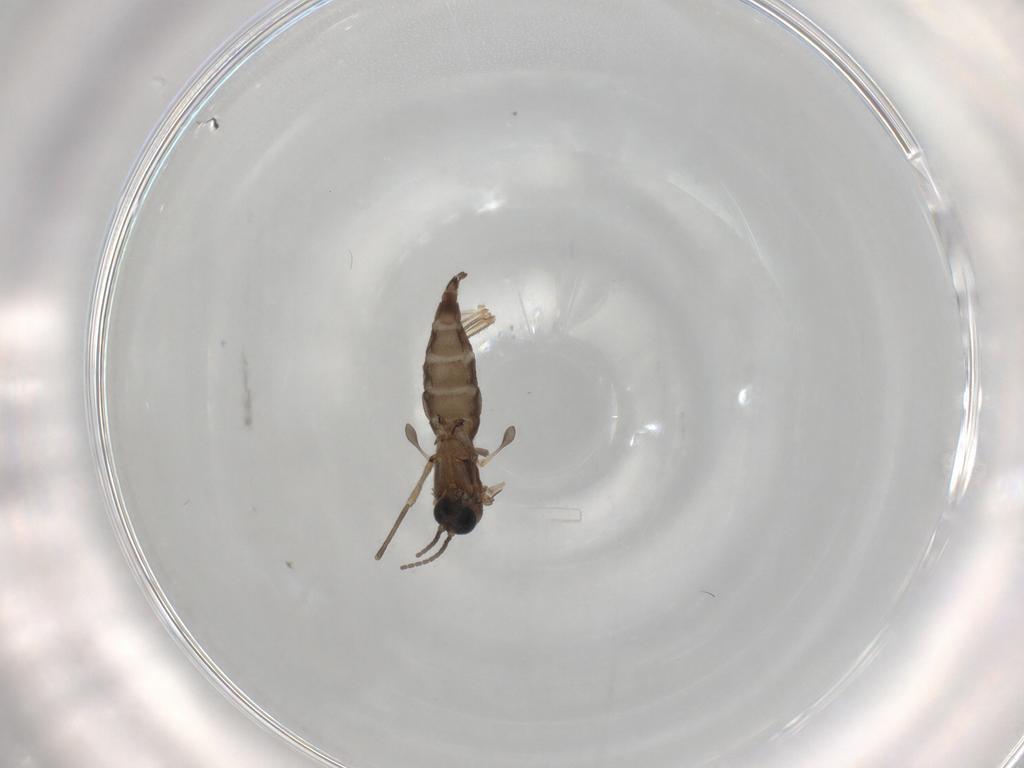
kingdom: Animalia
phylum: Arthropoda
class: Insecta
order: Diptera
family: Sciaridae
